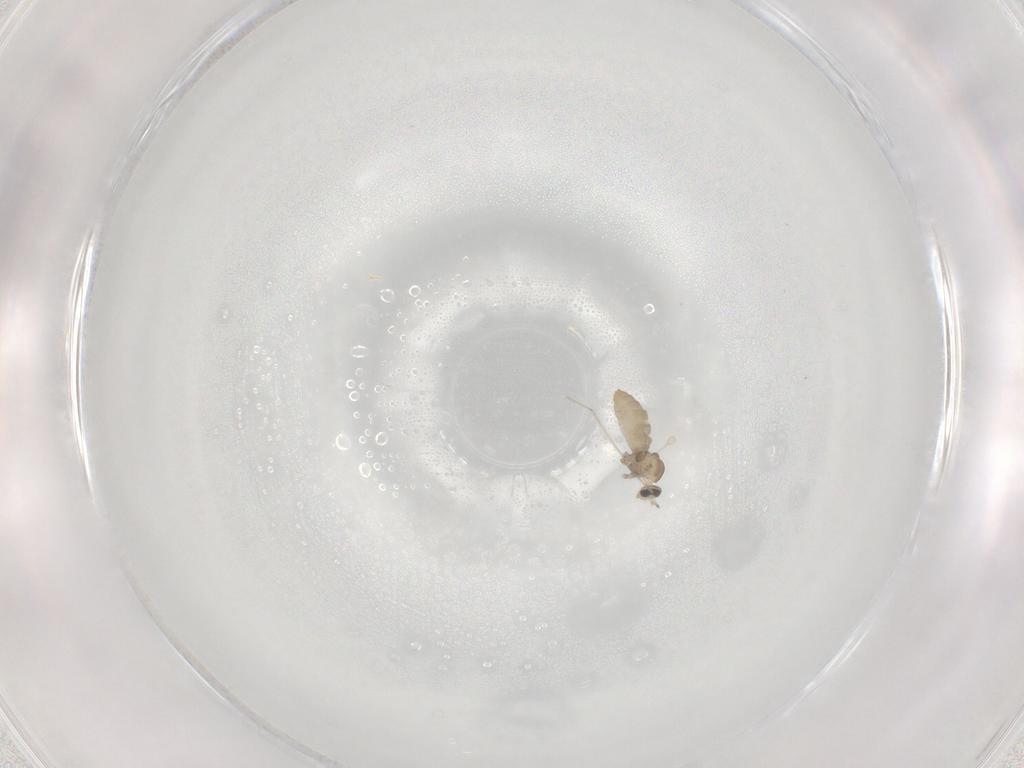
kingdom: Animalia
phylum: Arthropoda
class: Insecta
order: Diptera
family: Cecidomyiidae
